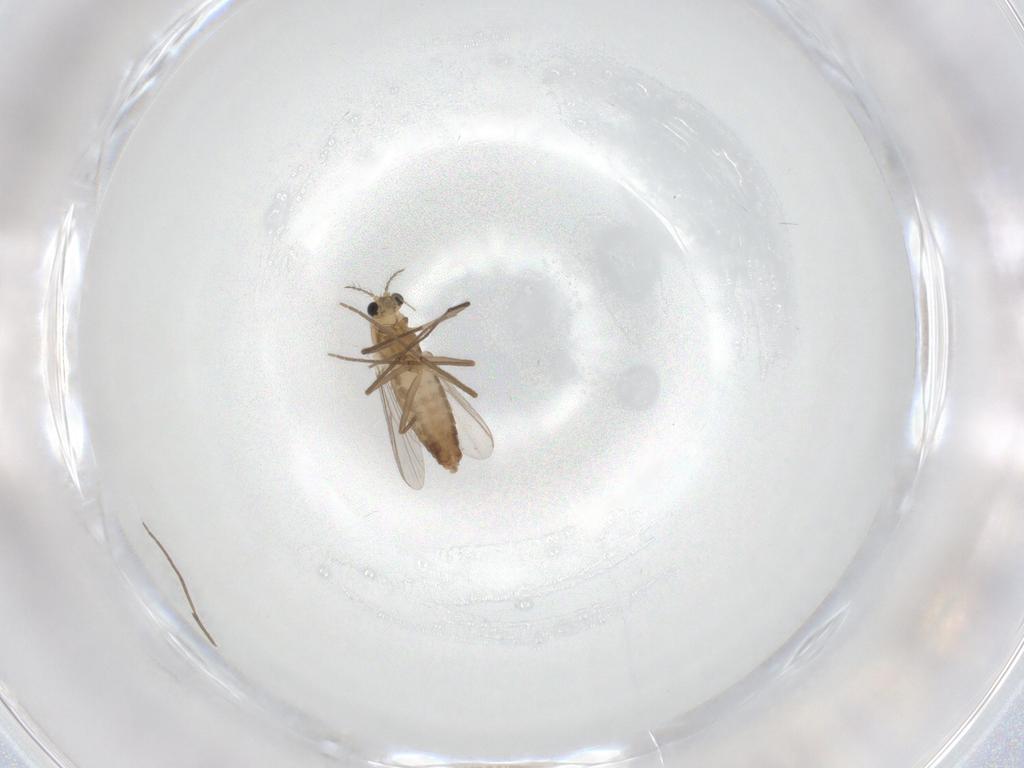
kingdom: Animalia
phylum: Arthropoda
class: Insecta
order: Diptera
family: Chironomidae
